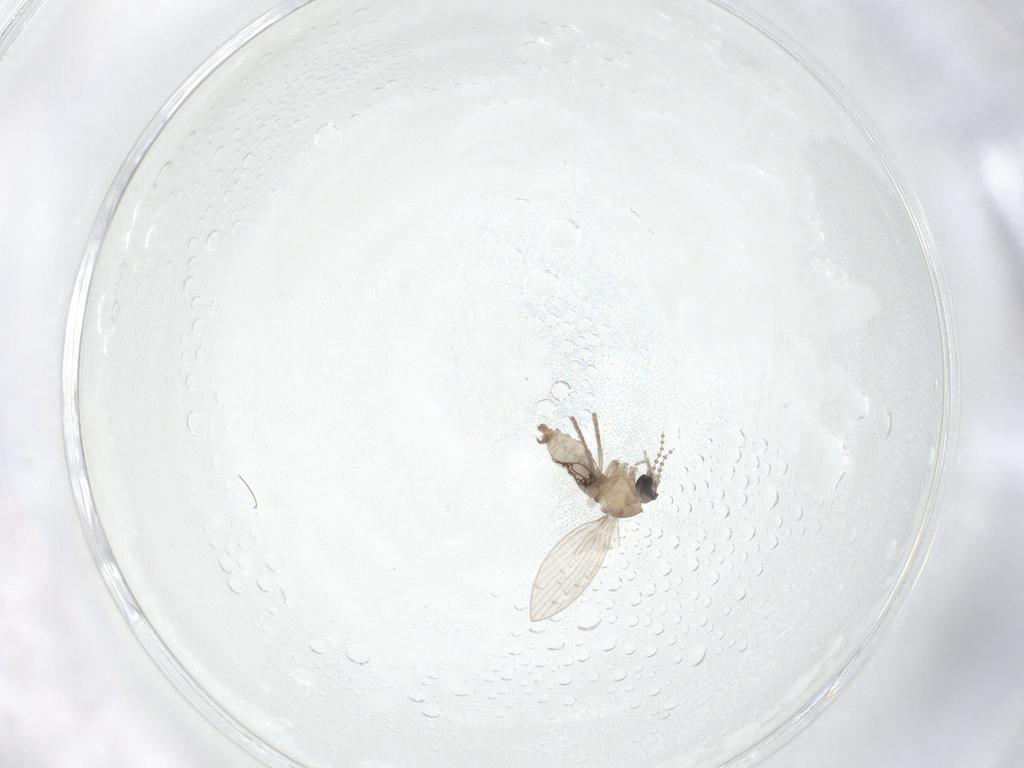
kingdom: Animalia
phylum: Arthropoda
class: Insecta
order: Diptera
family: Psychodidae
